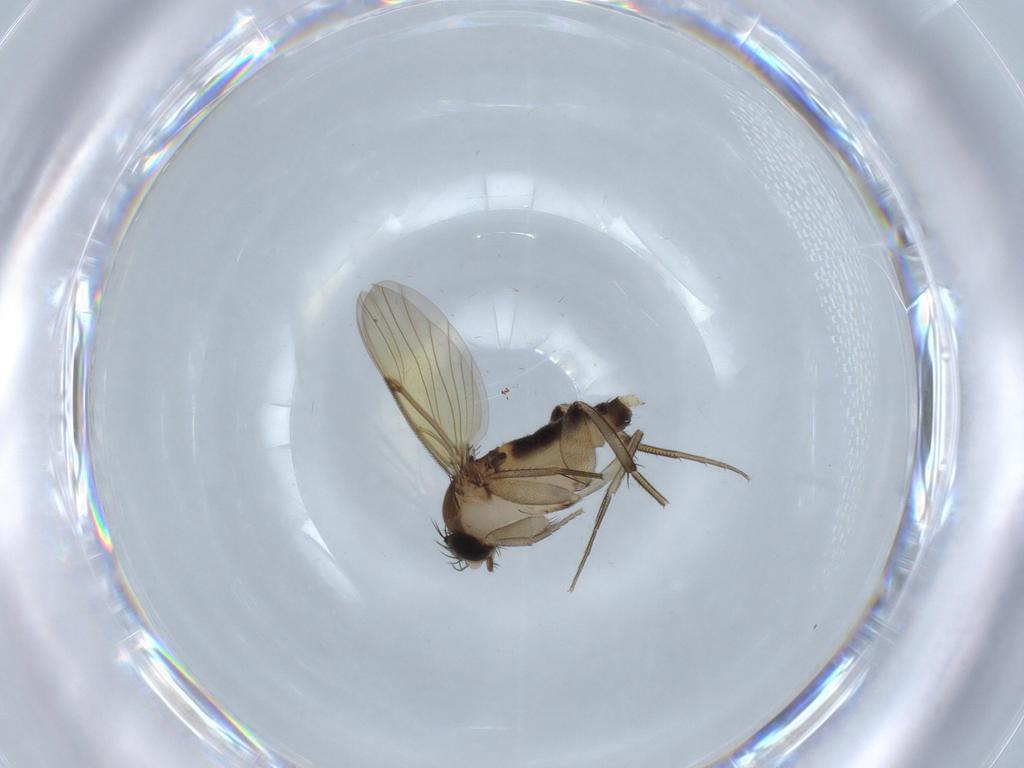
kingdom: Animalia
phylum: Arthropoda
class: Insecta
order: Diptera
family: Phoridae
